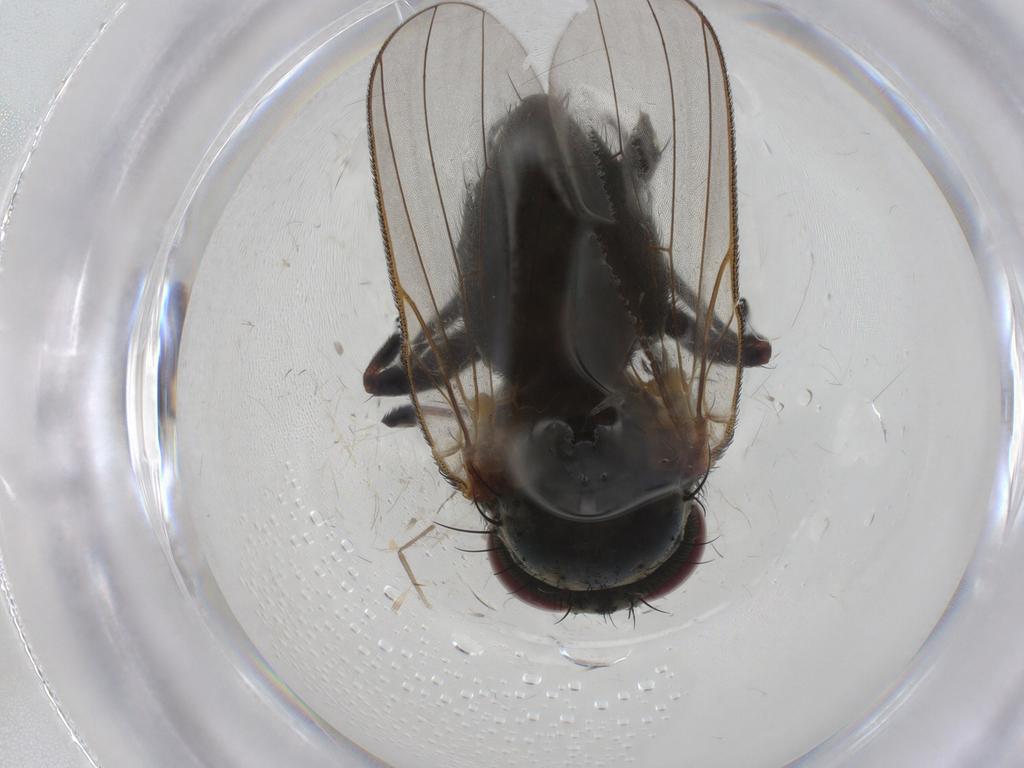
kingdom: Animalia
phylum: Arthropoda
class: Insecta
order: Diptera
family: Fannia
